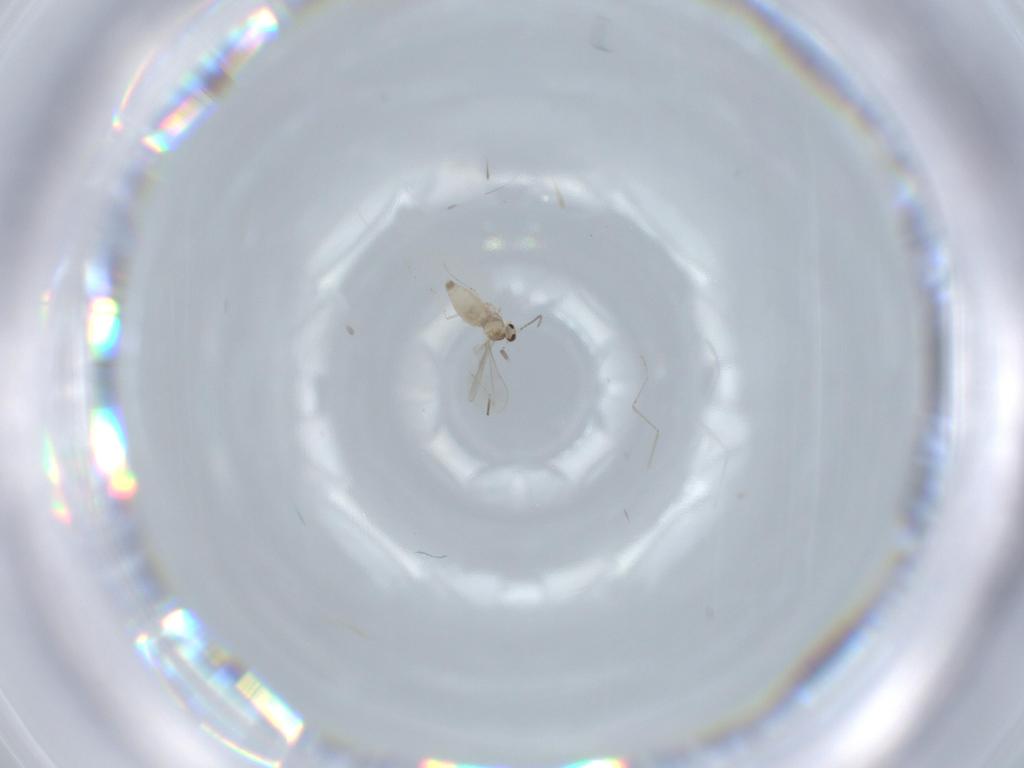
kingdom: Animalia
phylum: Arthropoda
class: Insecta
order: Diptera
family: Cecidomyiidae
